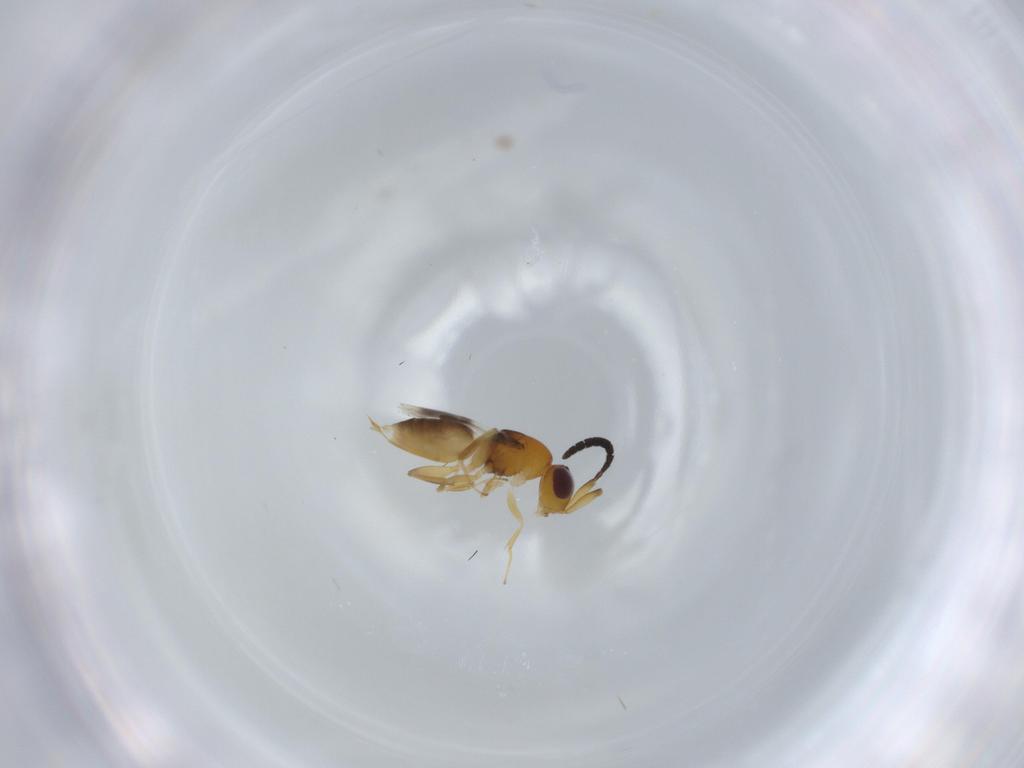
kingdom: Animalia
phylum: Arthropoda
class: Insecta
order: Hymenoptera
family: Megaspilidae
